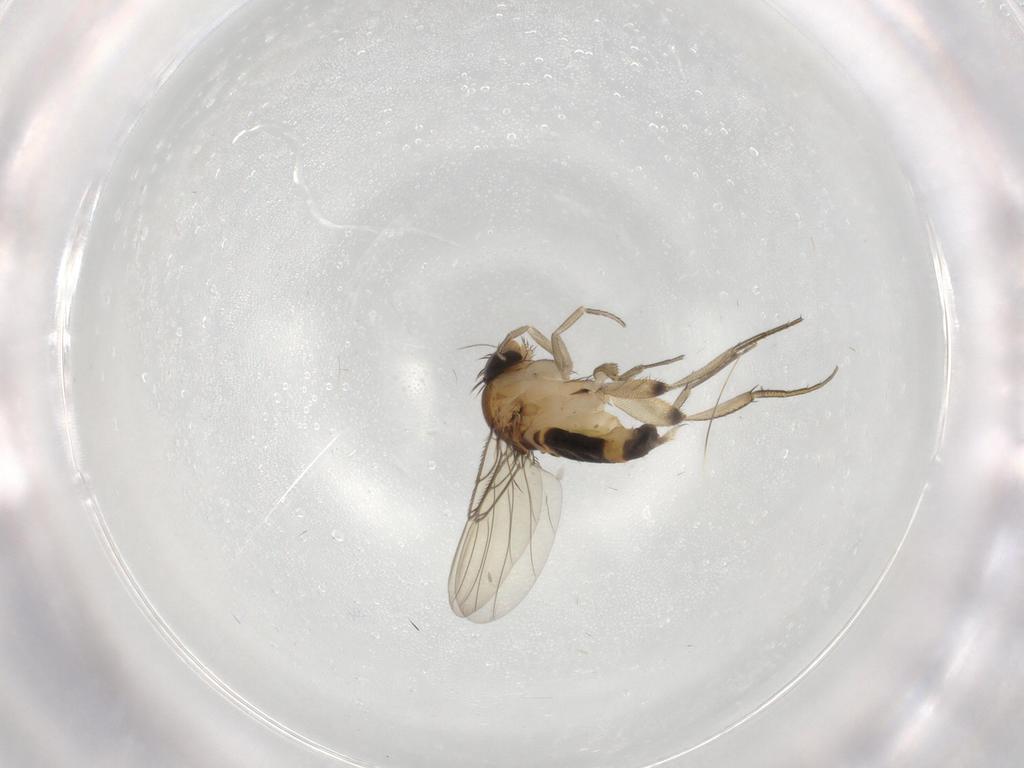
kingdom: Animalia
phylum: Arthropoda
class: Insecta
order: Diptera
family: Phoridae
